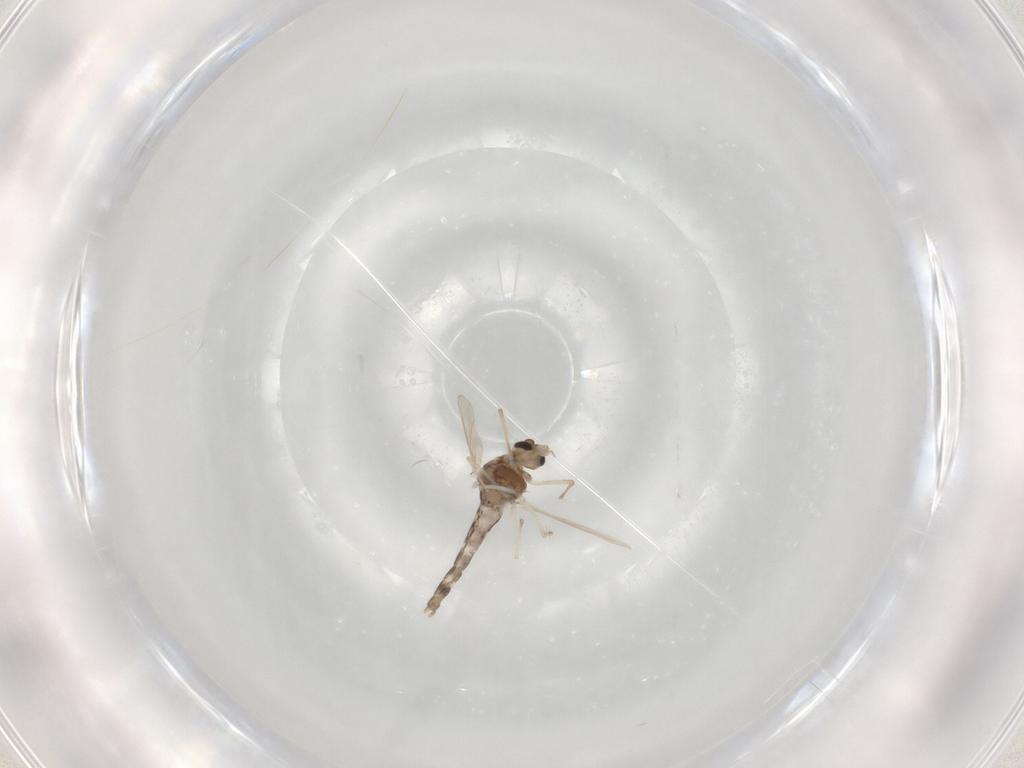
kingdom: Animalia
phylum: Arthropoda
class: Insecta
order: Diptera
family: Chironomidae
